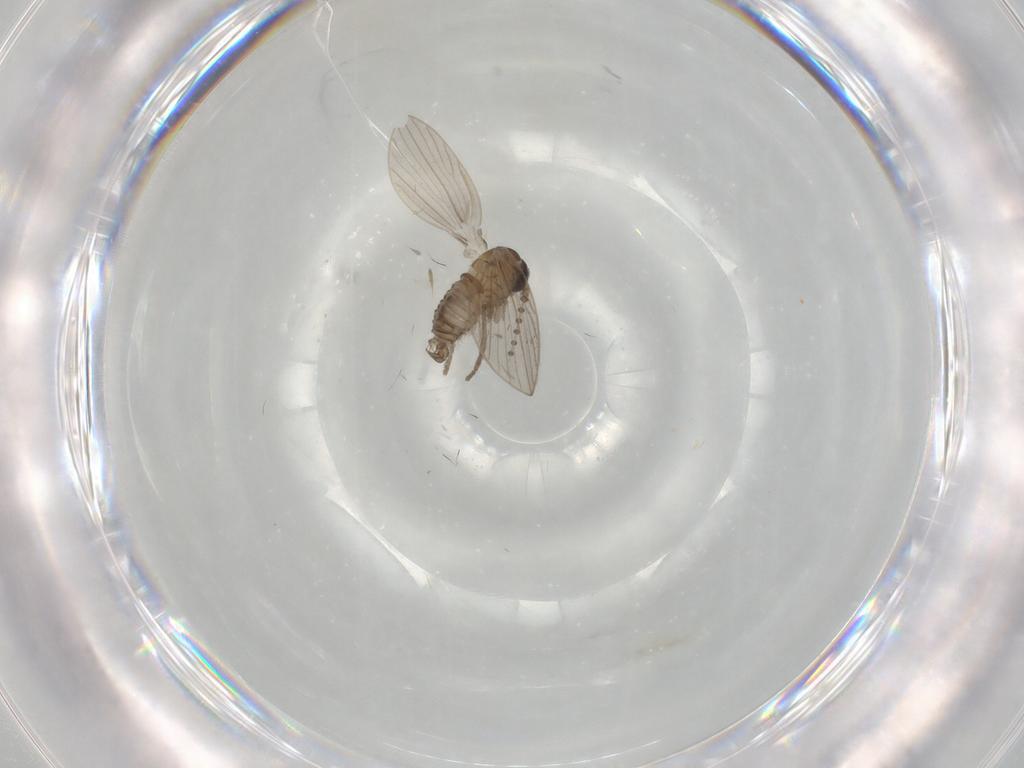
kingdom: Animalia
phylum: Arthropoda
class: Insecta
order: Diptera
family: Psychodidae
